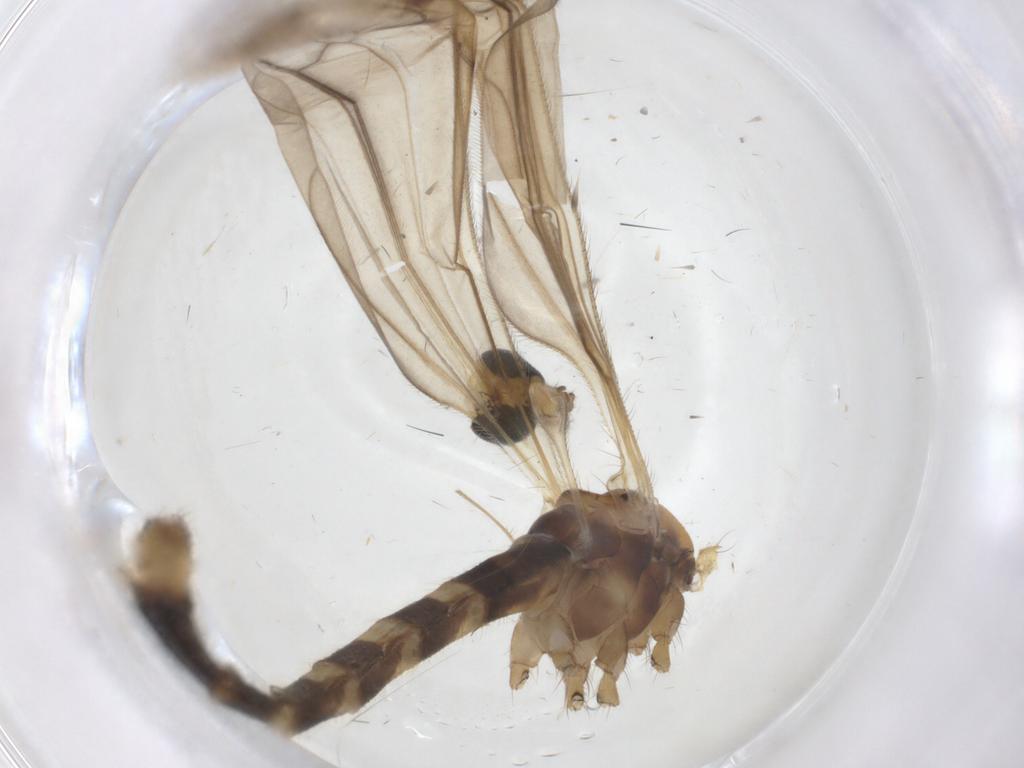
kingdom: Animalia
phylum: Arthropoda
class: Insecta
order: Diptera
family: Limoniidae
